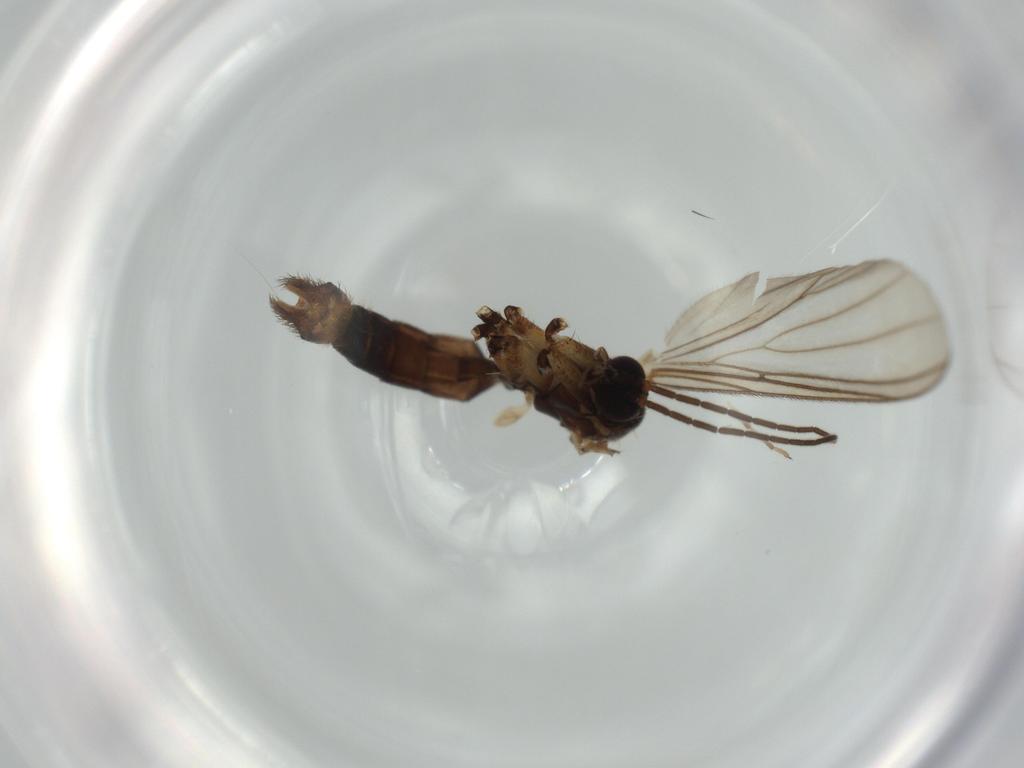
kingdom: Animalia
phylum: Arthropoda
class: Insecta
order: Diptera
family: Mycetophilidae
